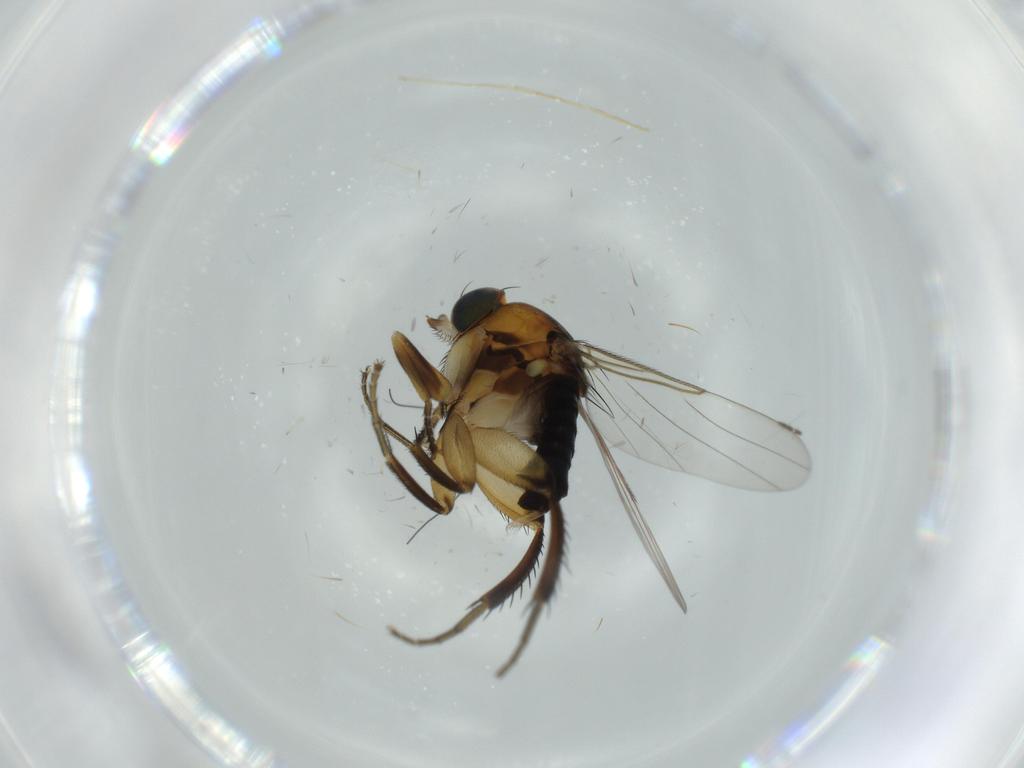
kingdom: Animalia
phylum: Arthropoda
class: Insecta
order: Diptera
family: Phoridae
